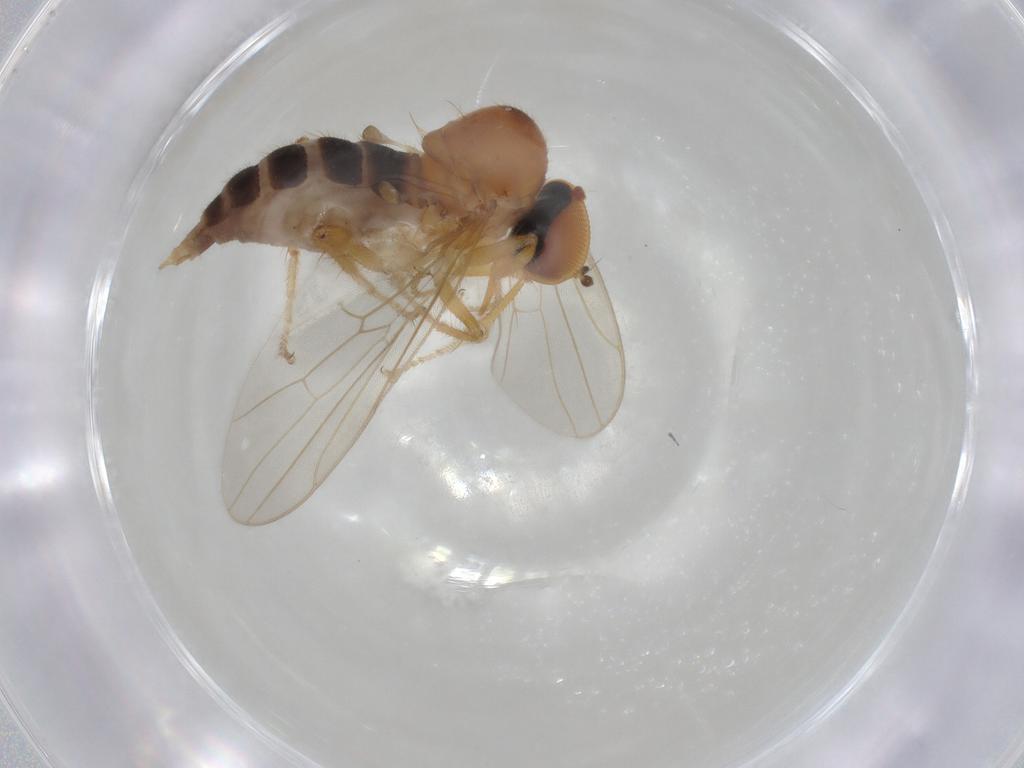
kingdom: Animalia
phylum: Arthropoda
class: Insecta
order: Diptera
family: Hybotidae
